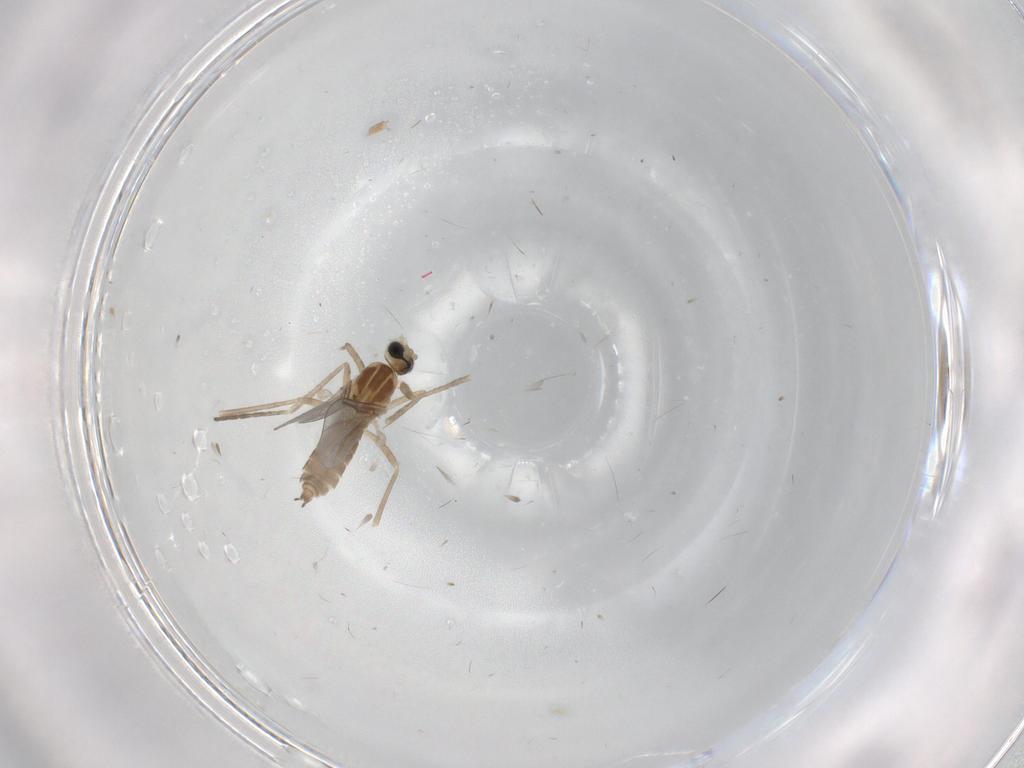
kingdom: Animalia
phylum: Arthropoda
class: Insecta
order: Diptera
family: Cecidomyiidae
